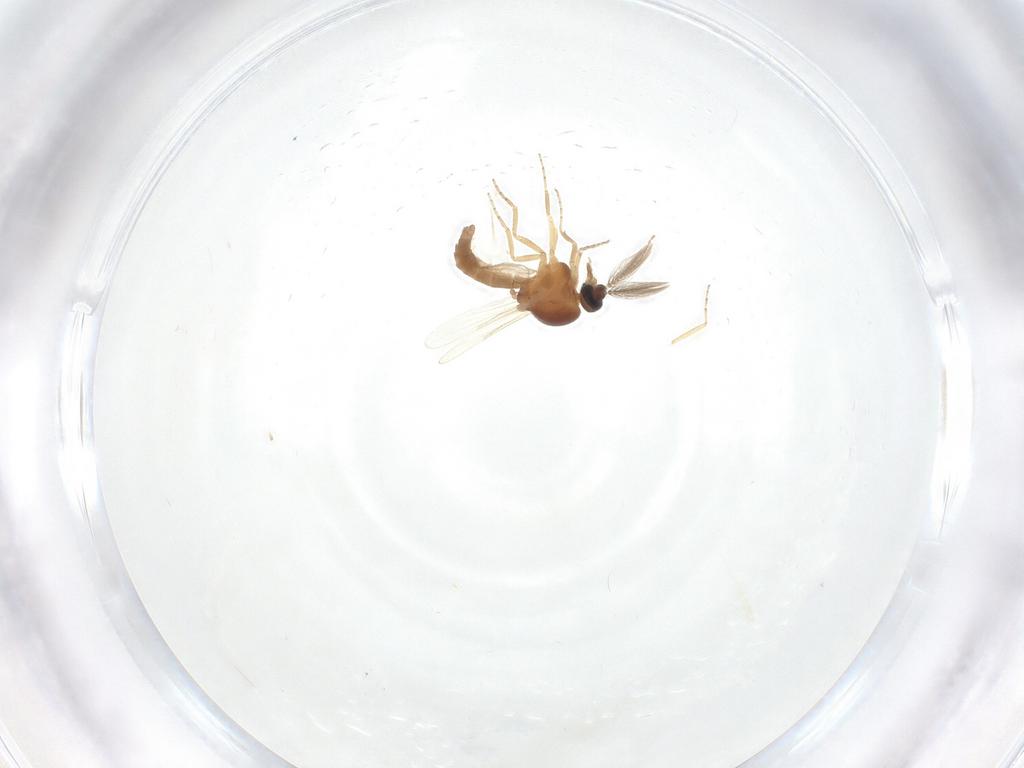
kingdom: Animalia
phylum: Arthropoda
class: Insecta
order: Diptera
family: Ceratopogonidae
